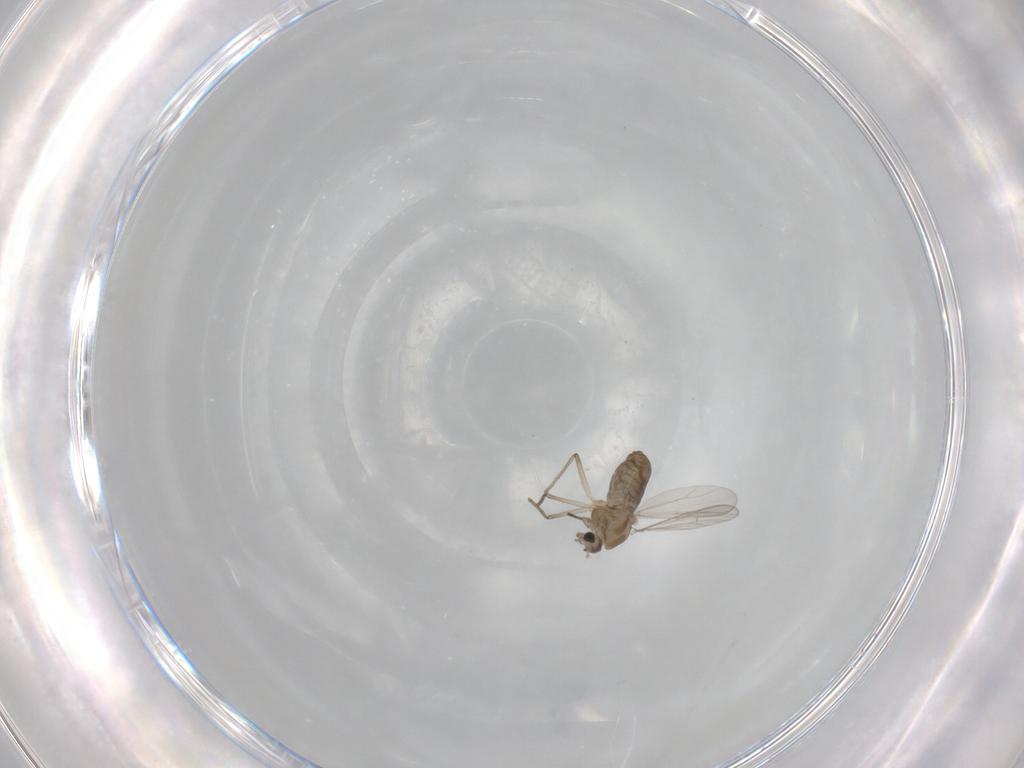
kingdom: Animalia
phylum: Arthropoda
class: Insecta
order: Diptera
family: Chironomidae
